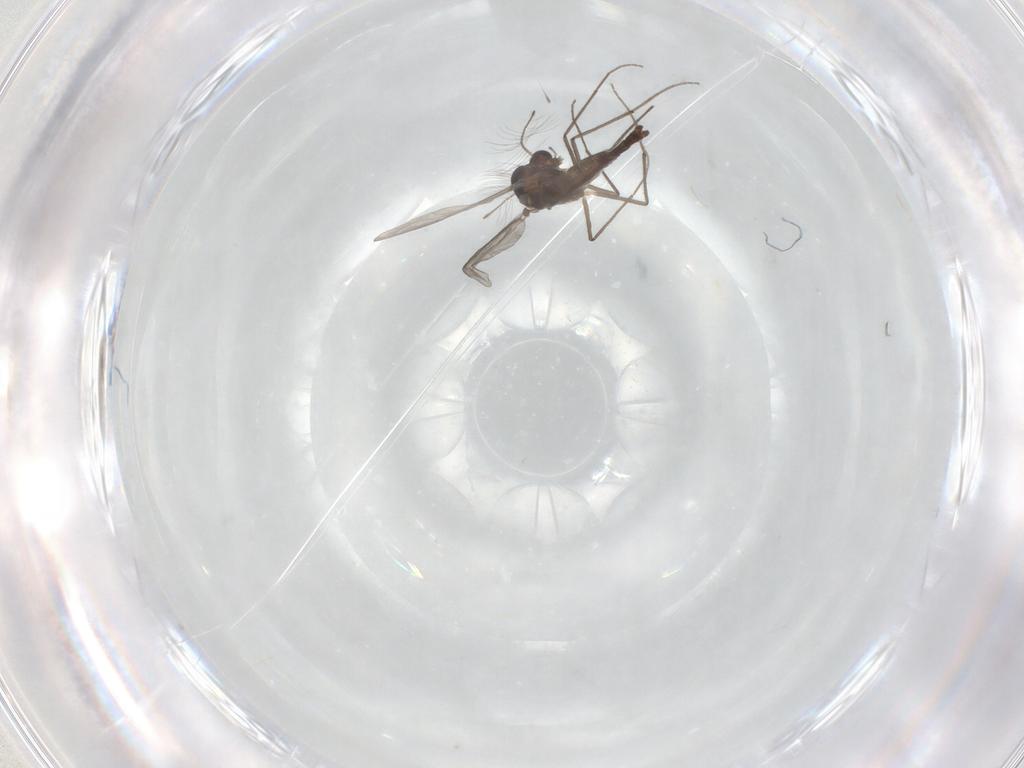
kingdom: Animalia
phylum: Arthropoda
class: Insecta
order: Diptera
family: Chironomidae
